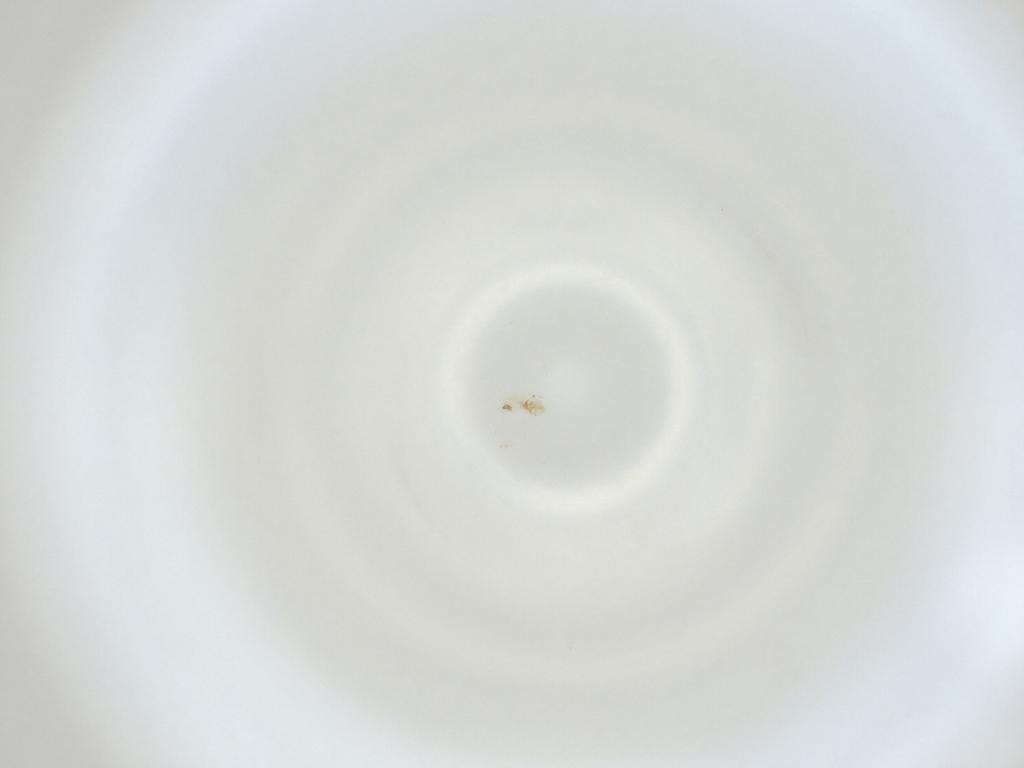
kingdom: Animalia
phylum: Arthropoda
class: Insecta
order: Diptera
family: Cecidomyiidae
